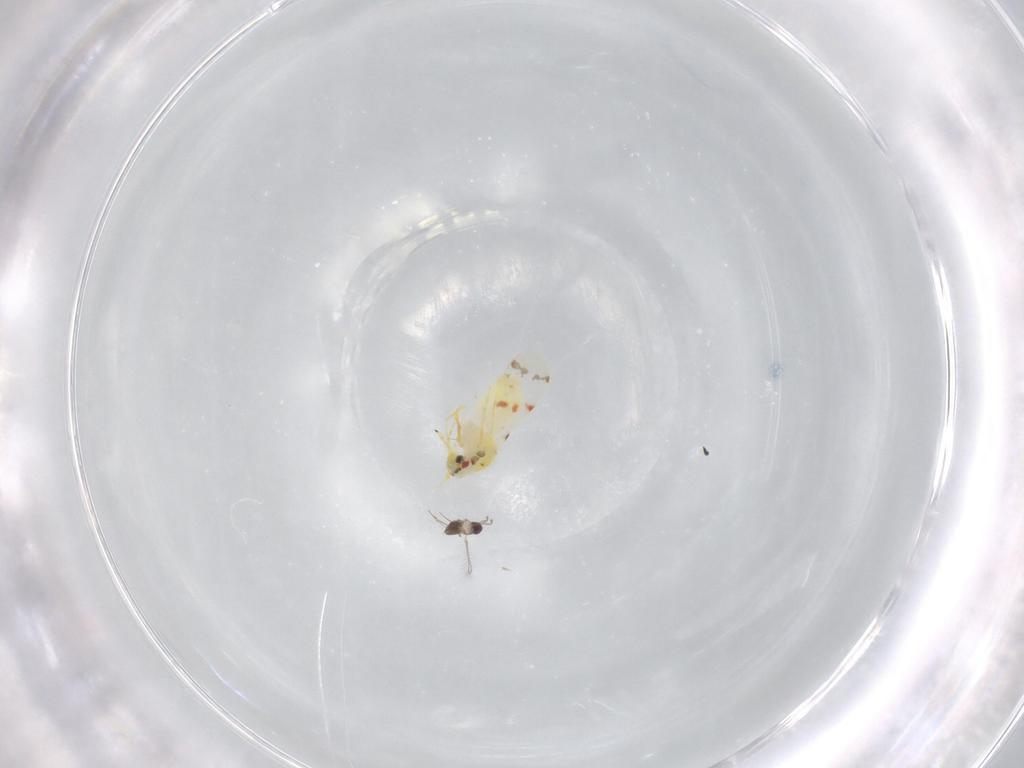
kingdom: Animalia
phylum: Arthropoda
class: Insecta
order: Hemiptera
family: Aleyrodidae
